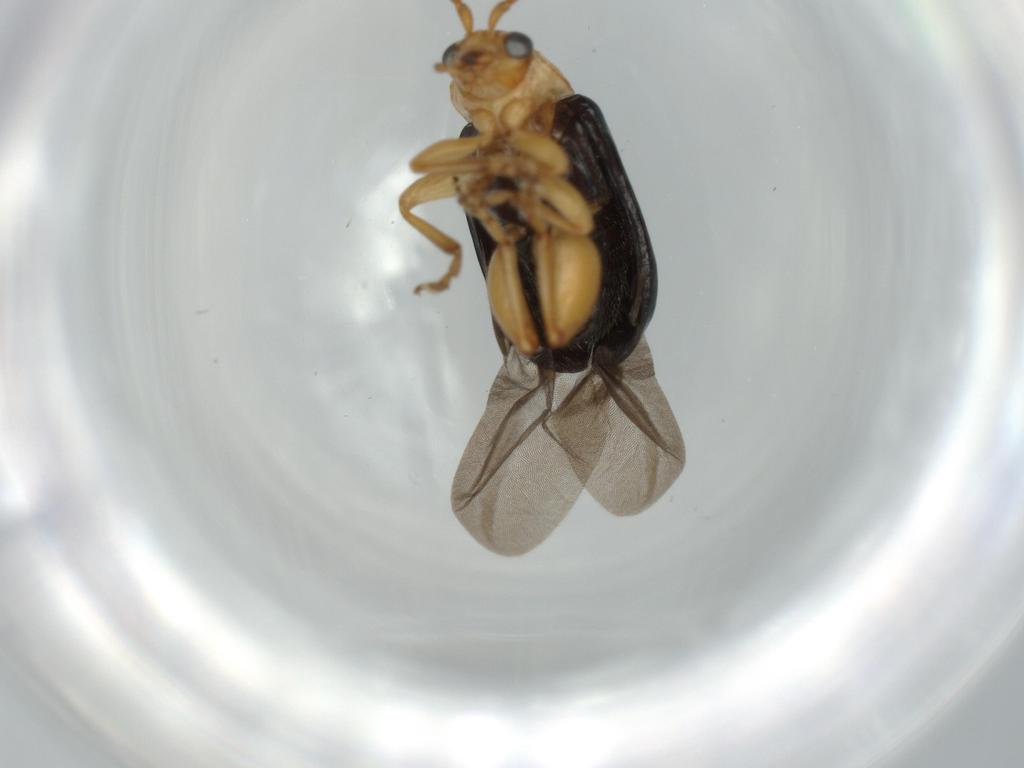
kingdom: Animalia
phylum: Arthropoda
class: Insecta
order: Coleoptera
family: Chrysomelidae
